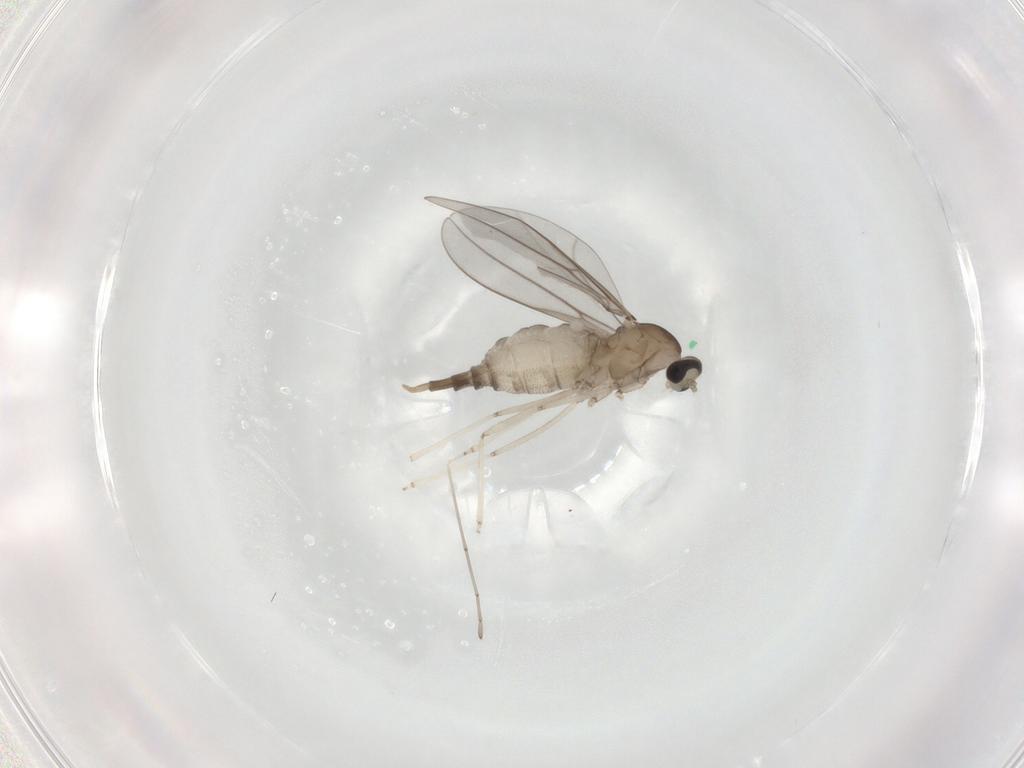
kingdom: Animalia
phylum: Arthropoda
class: Insecta
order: Diptera
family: Cecidomyiidae
